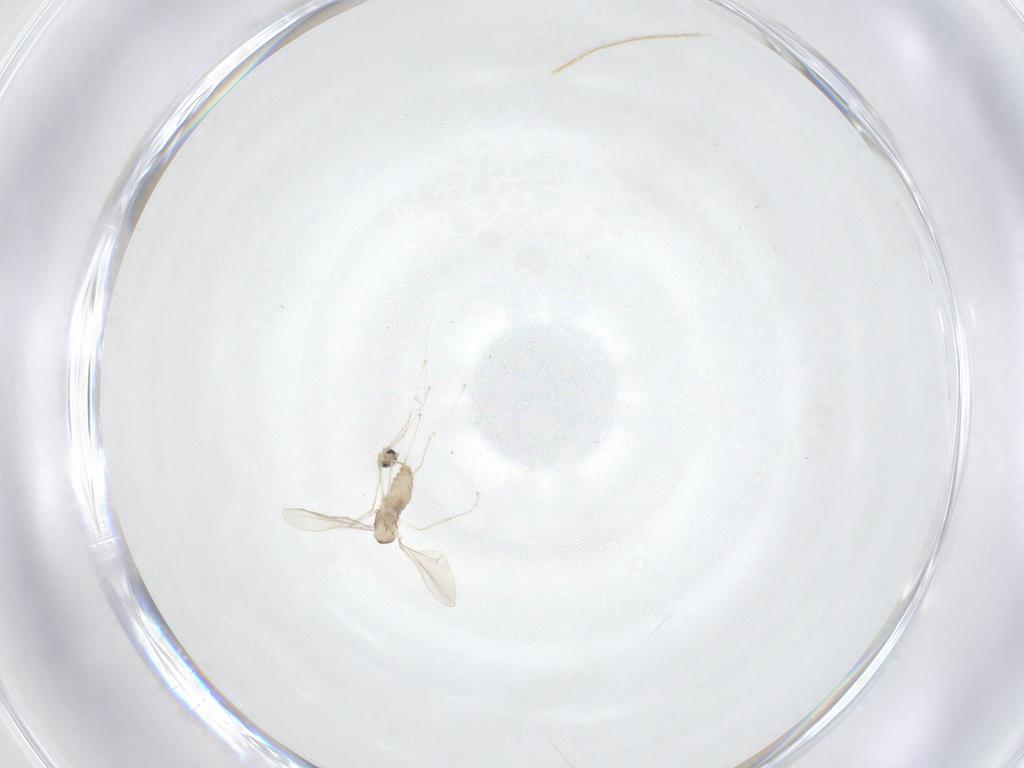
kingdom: Animalia
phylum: Arthropoda
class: Insecta
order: Diptera
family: Cecidomyiidae
